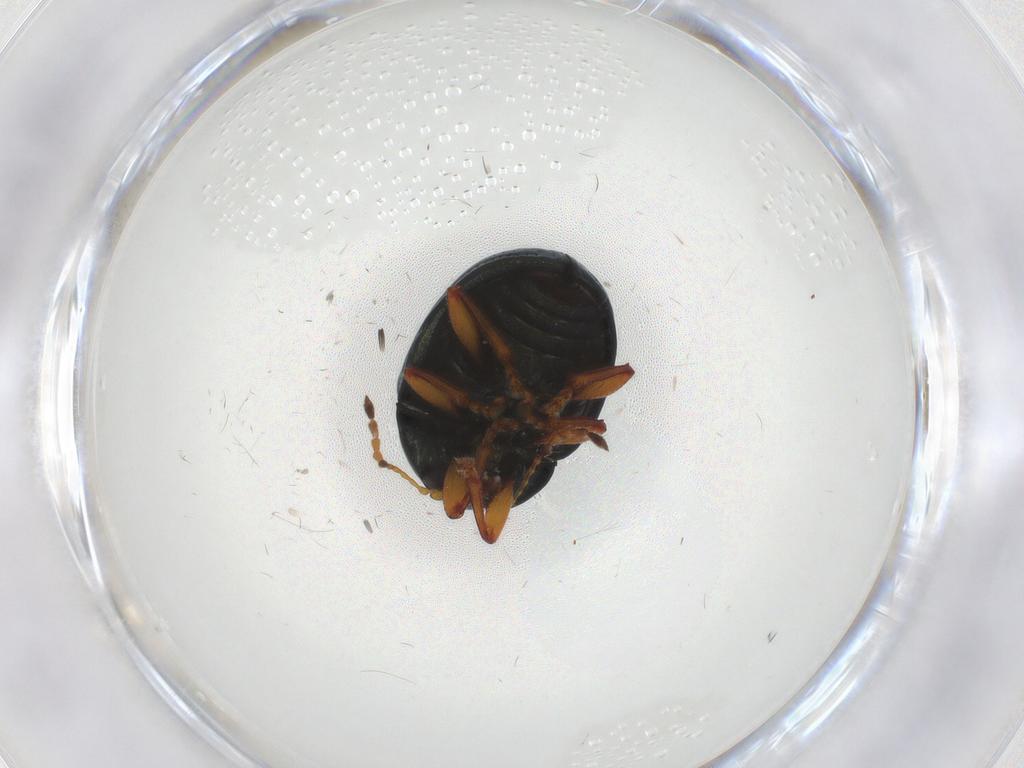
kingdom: Animalia
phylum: Arthropoda
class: Insecta
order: Coleoptera
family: Chrysomelidae
